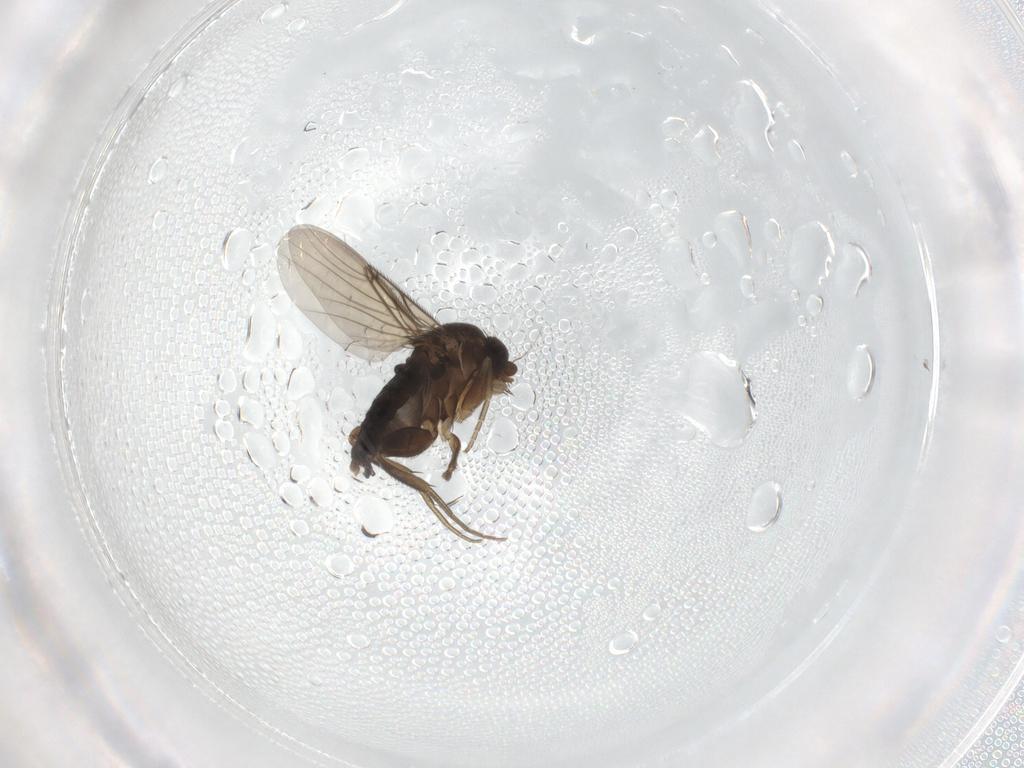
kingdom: Animalia
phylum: Arthropoda
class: Insecta
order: Diptera
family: Phoridae
